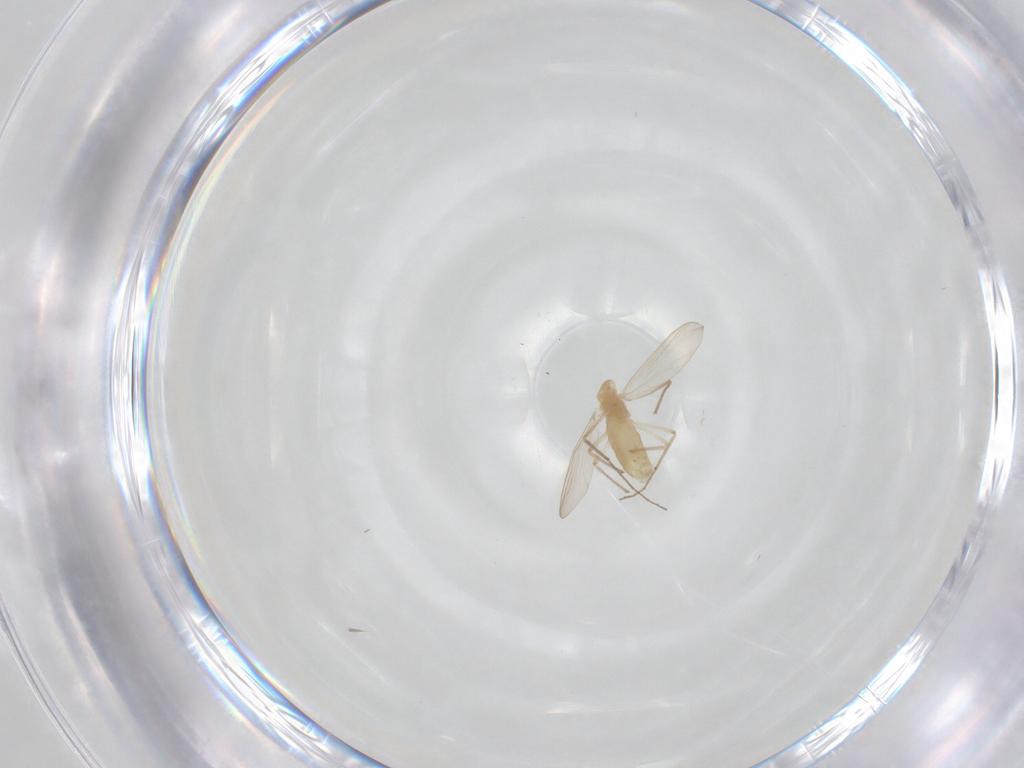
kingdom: Animalia
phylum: Arthropoda
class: Insecta
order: Diptera
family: Chironomidae
